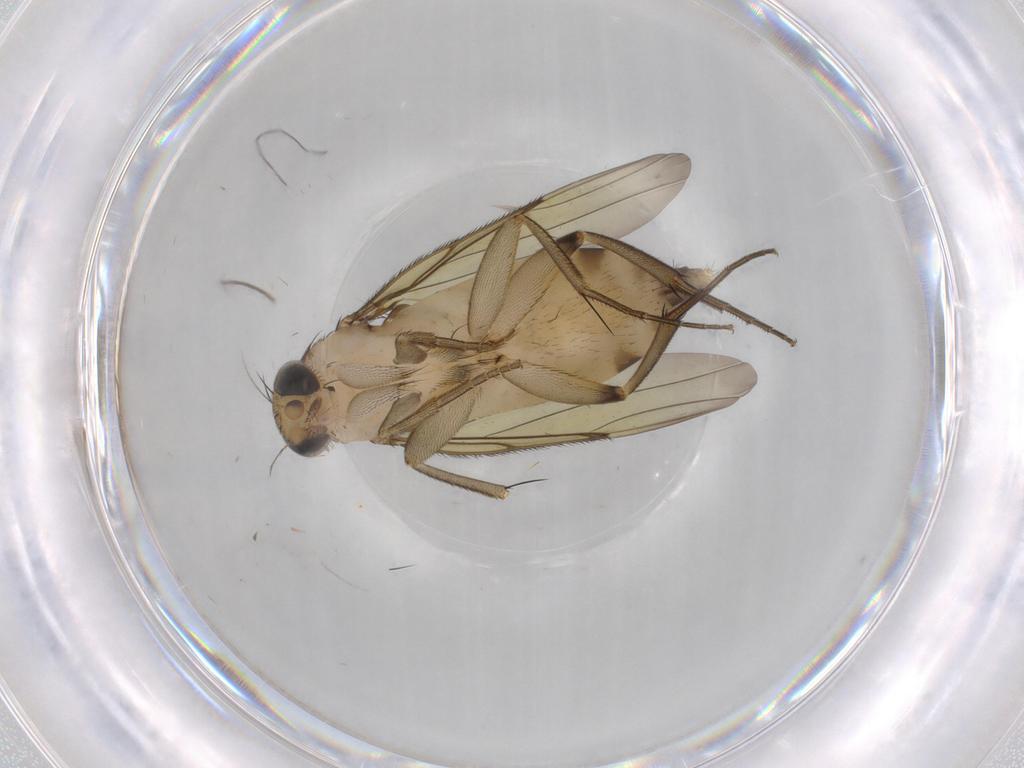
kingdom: Animalia
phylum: Arthropoda
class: Insecta
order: Diptera
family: Phoridae
